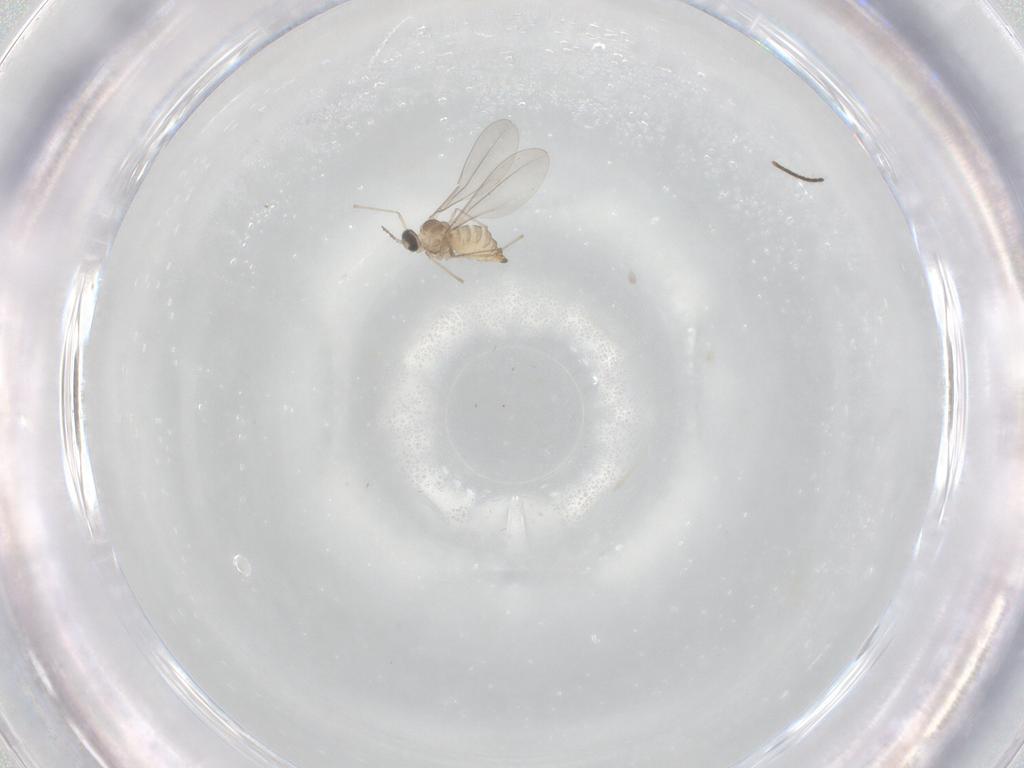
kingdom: Animalia
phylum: Arthropoda
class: Insecta
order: Diptera
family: Cecidomyiidae
